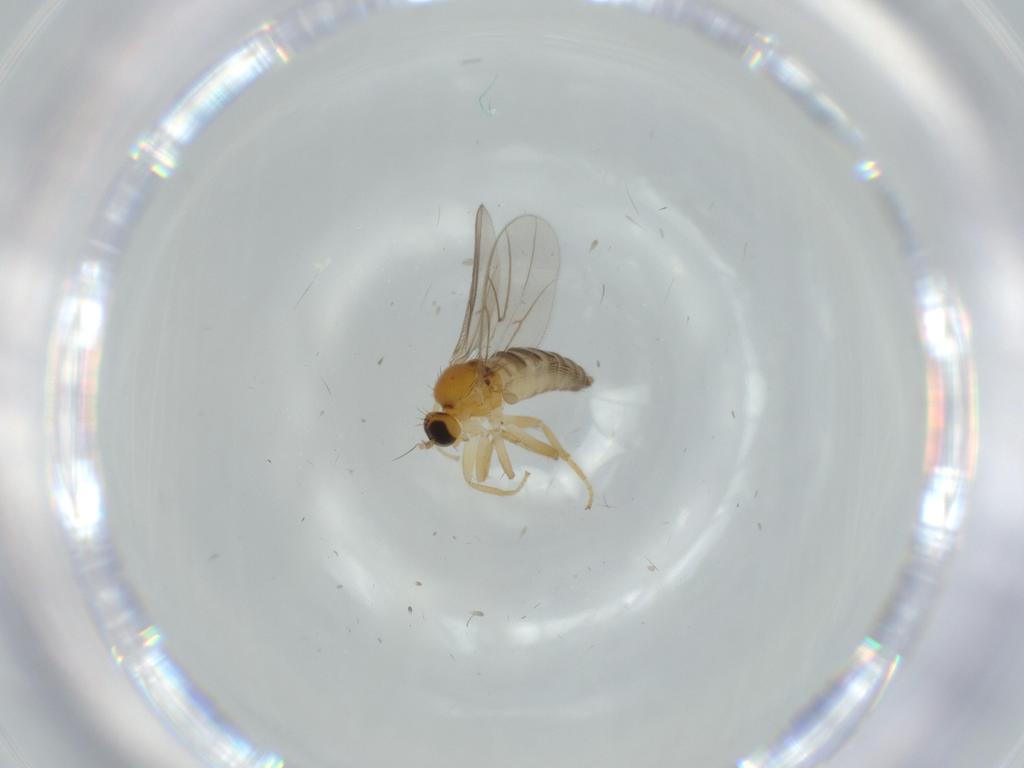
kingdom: Animalia
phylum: Arthropoda
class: Insecta
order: Diptera
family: Hybotidae
